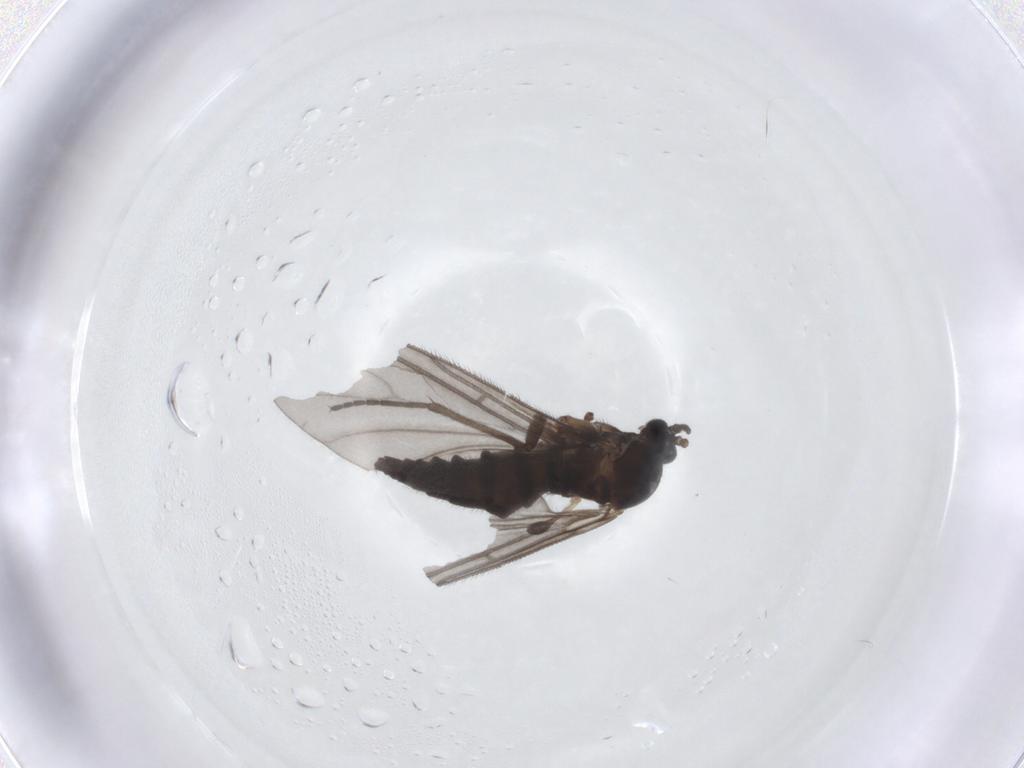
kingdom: Animalia
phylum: Arthropoda
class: Insecta
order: Diptera
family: Sciaridae
